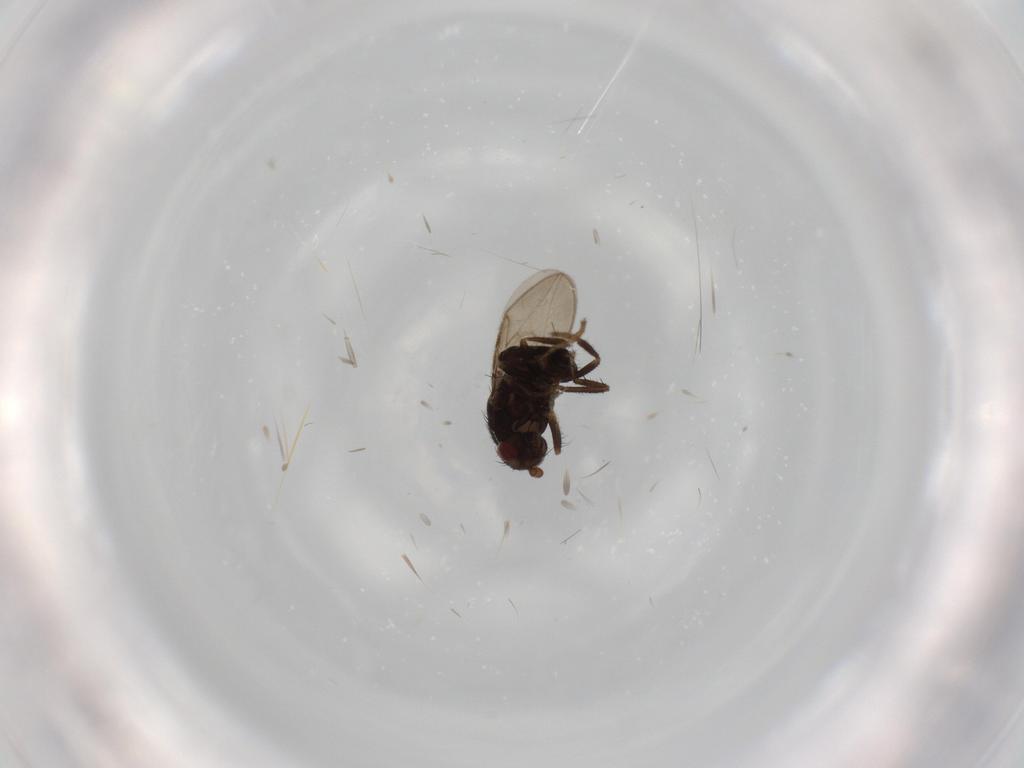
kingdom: Animalia
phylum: Arthropoda
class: Insecta
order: Diptera
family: Sphaeroceridae
